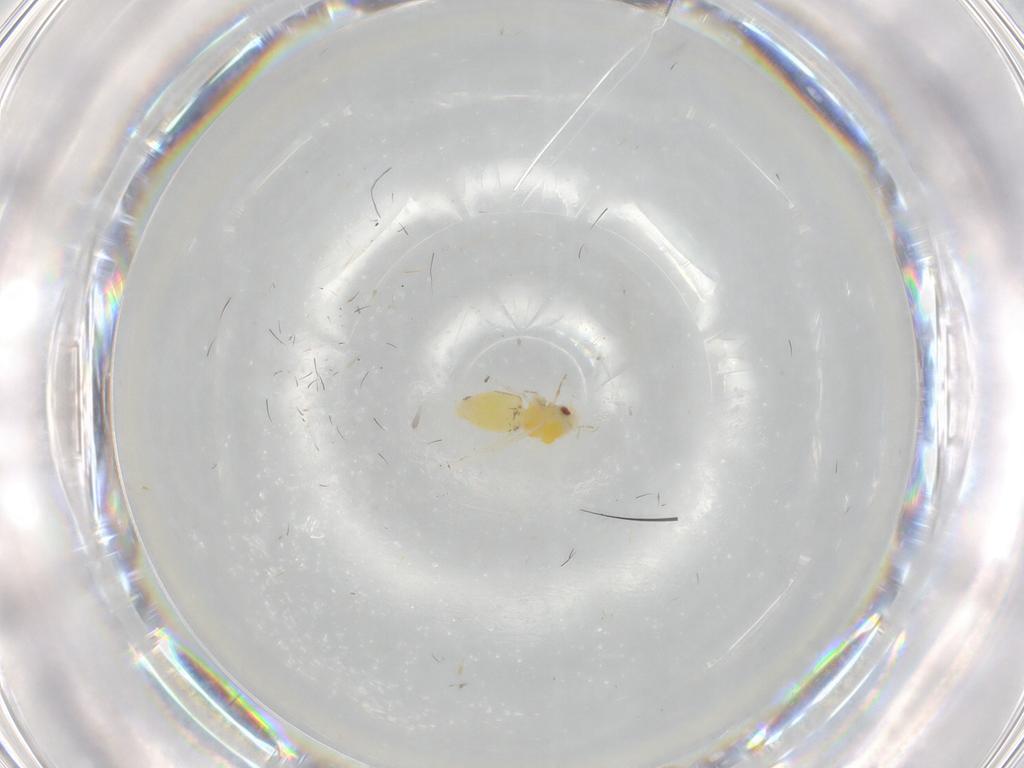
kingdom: Animalia
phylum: Arthropoda
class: Insecta
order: Hemiptera
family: Aleyrodidae
